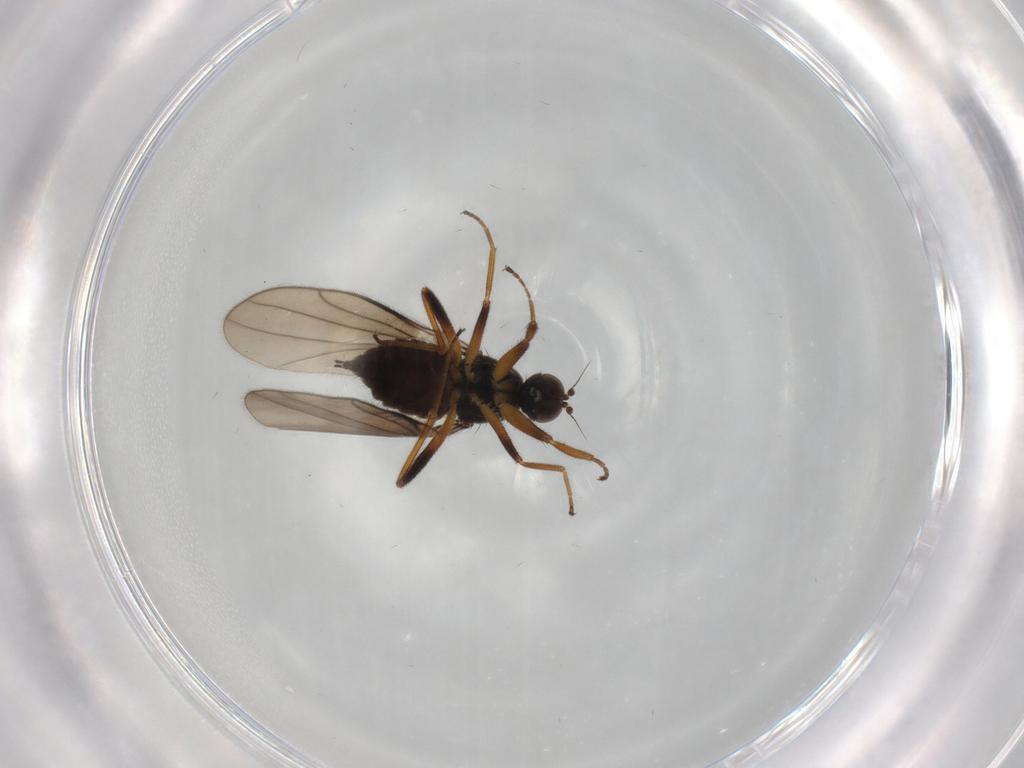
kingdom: Animalia
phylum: Arthropoda
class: Insecta
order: Diptera
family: Hybotidae
